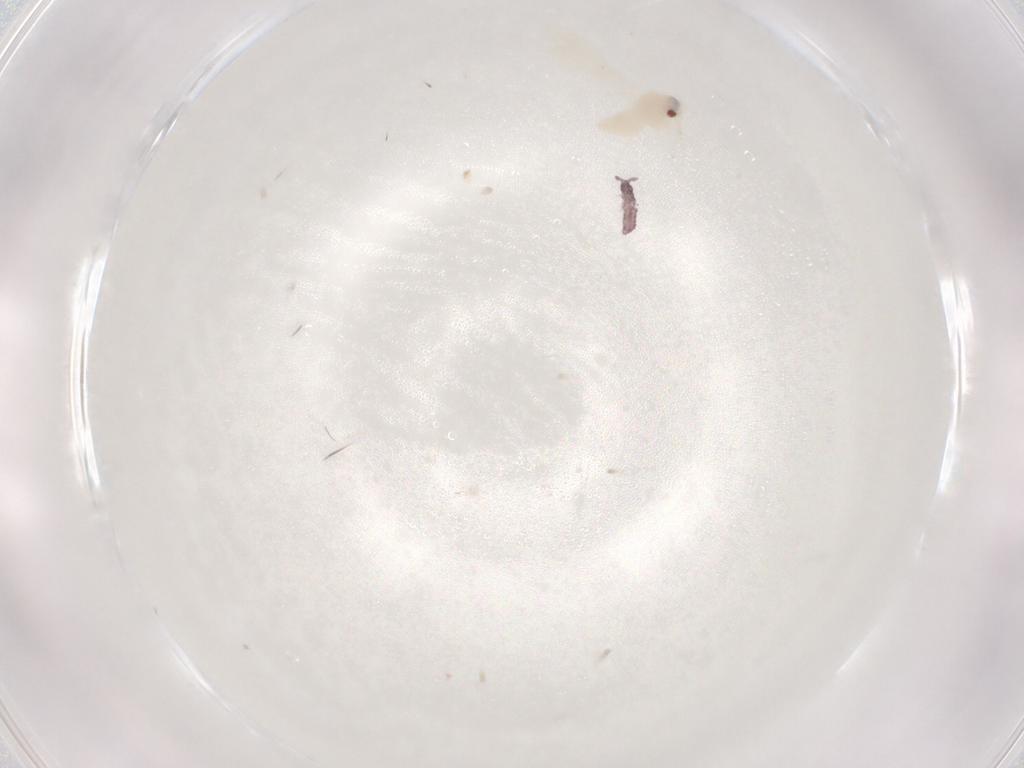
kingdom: Animalia
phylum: Arthropoda
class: Insecta
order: Hemiptera
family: Aleyrodidae
